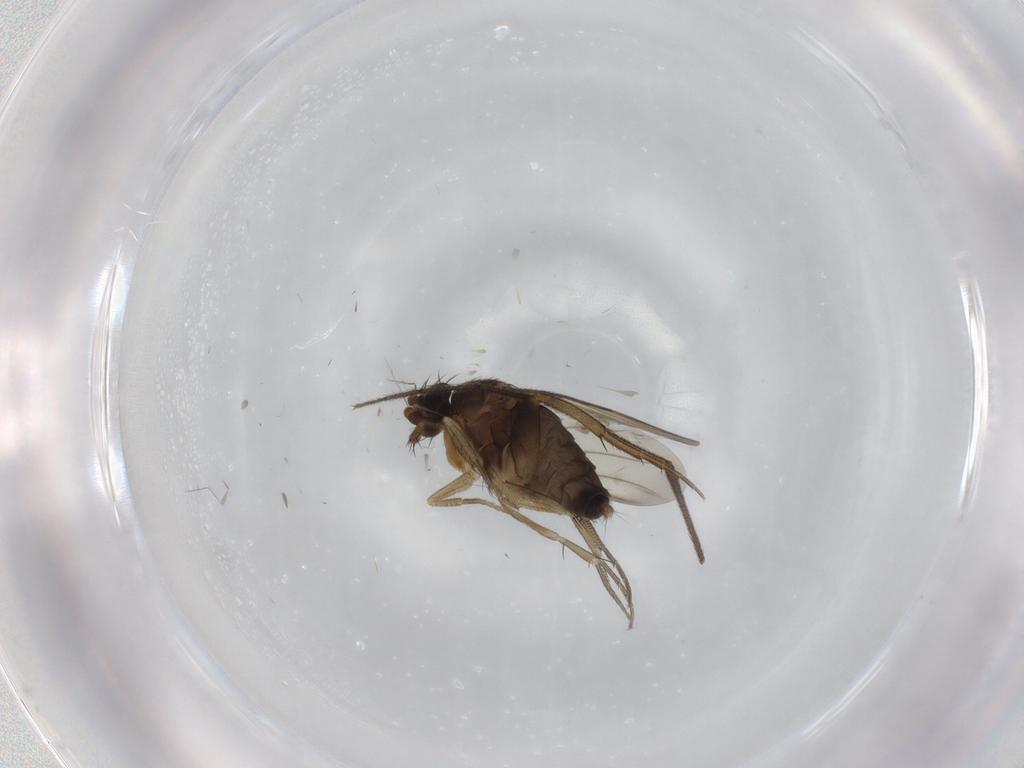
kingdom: Animalia
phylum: Arthropoda
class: Insecta
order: Diptera
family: Ditomyiidae
